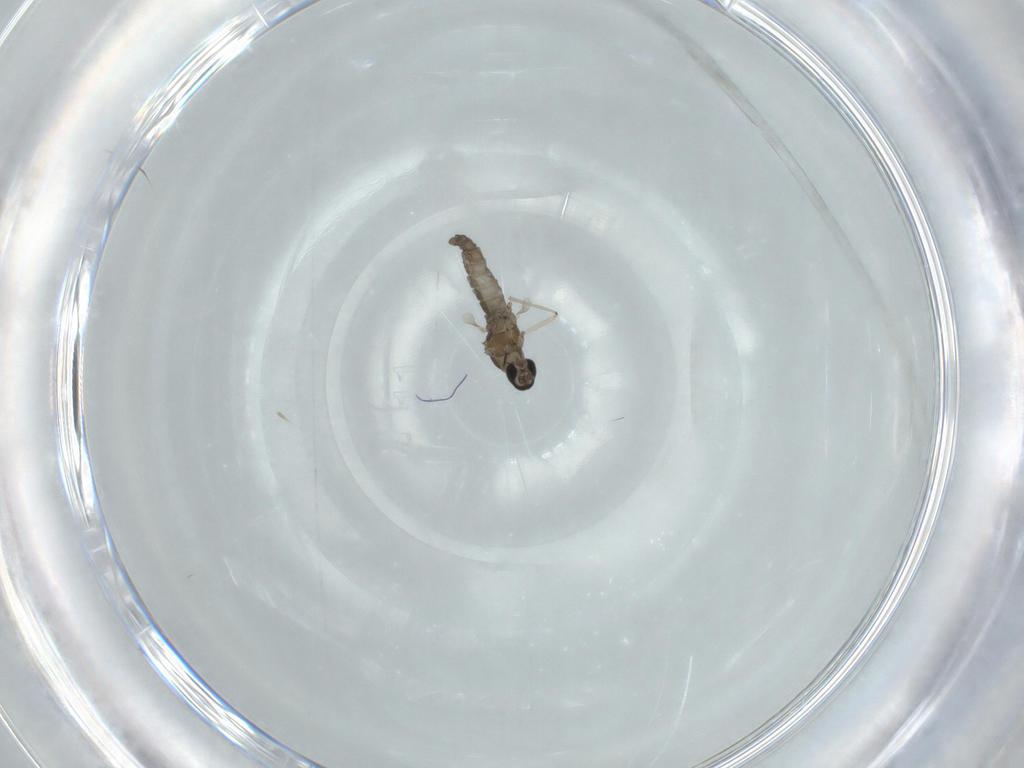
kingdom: Animalia
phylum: Arthropoda
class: Insecta
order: Diptera
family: Cecidomyiidae
